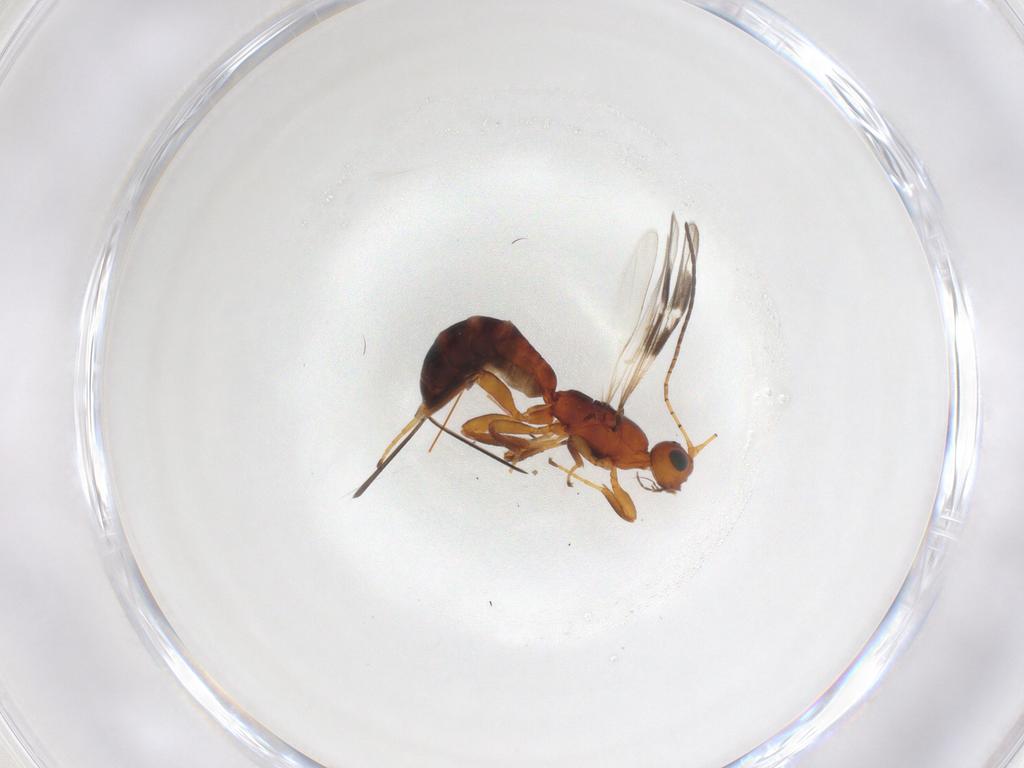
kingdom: Animalia
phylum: Arthropoda
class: Insecta
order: Hymenoptera
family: Braconidae
